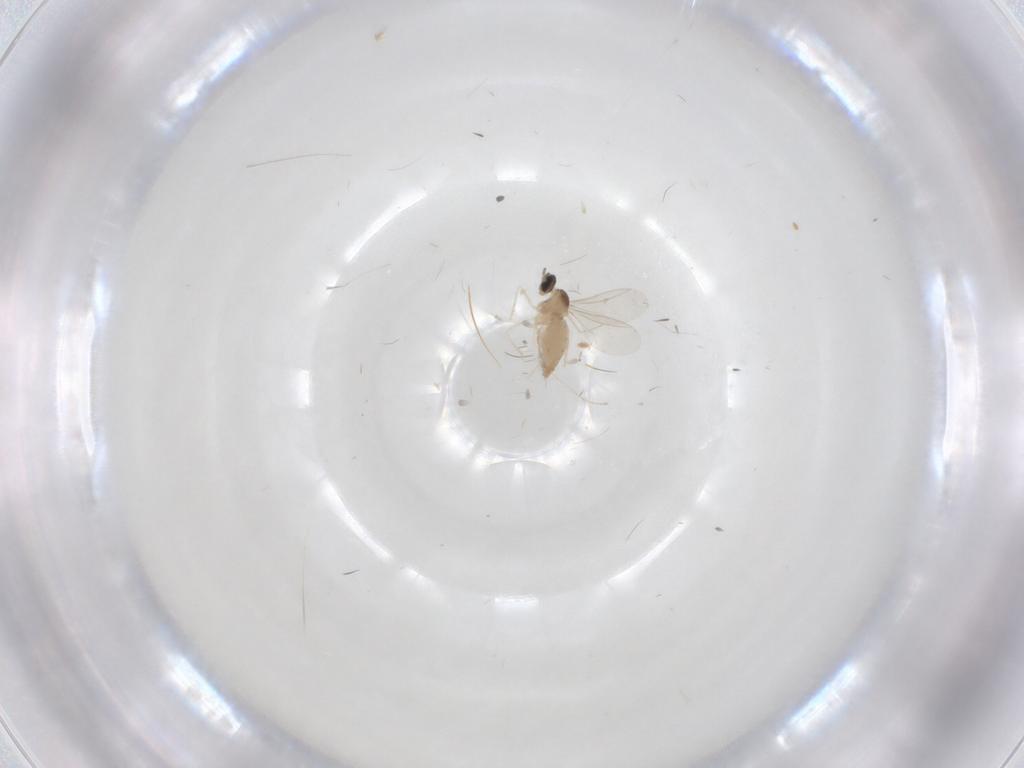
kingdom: Animalia
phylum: Arthropoda
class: Insecta
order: Diptera
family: Cecidomyiidae
